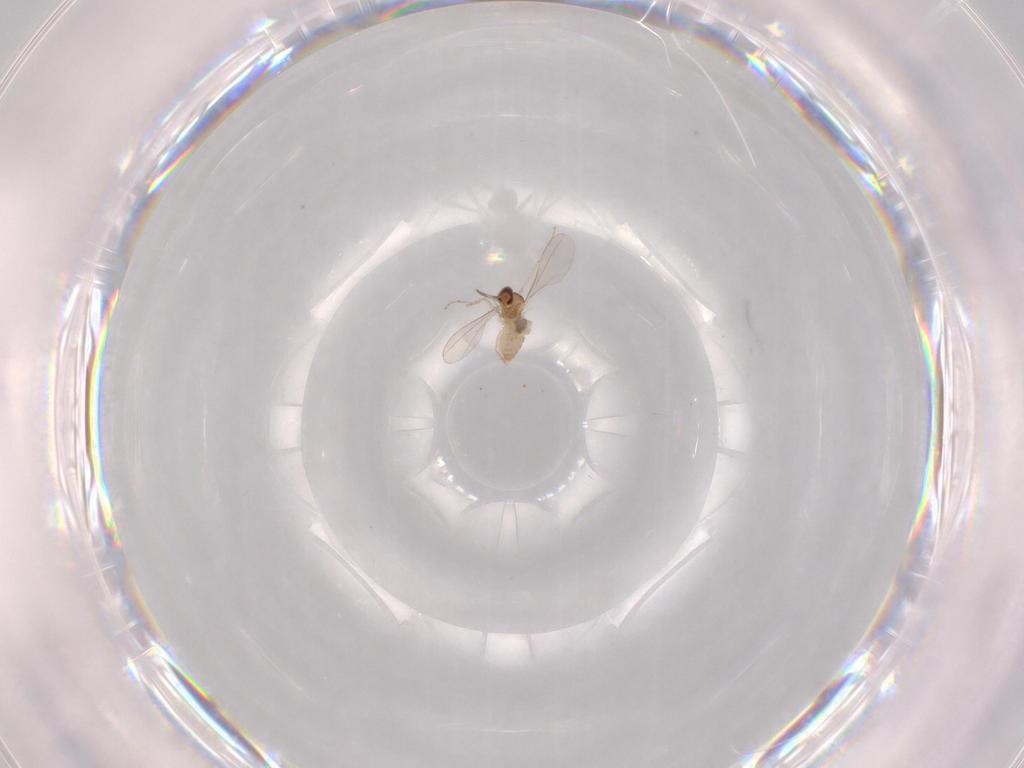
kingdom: Animalia
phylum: Arthropoda
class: Insecta
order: Diptera
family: Cecidomyiidae
